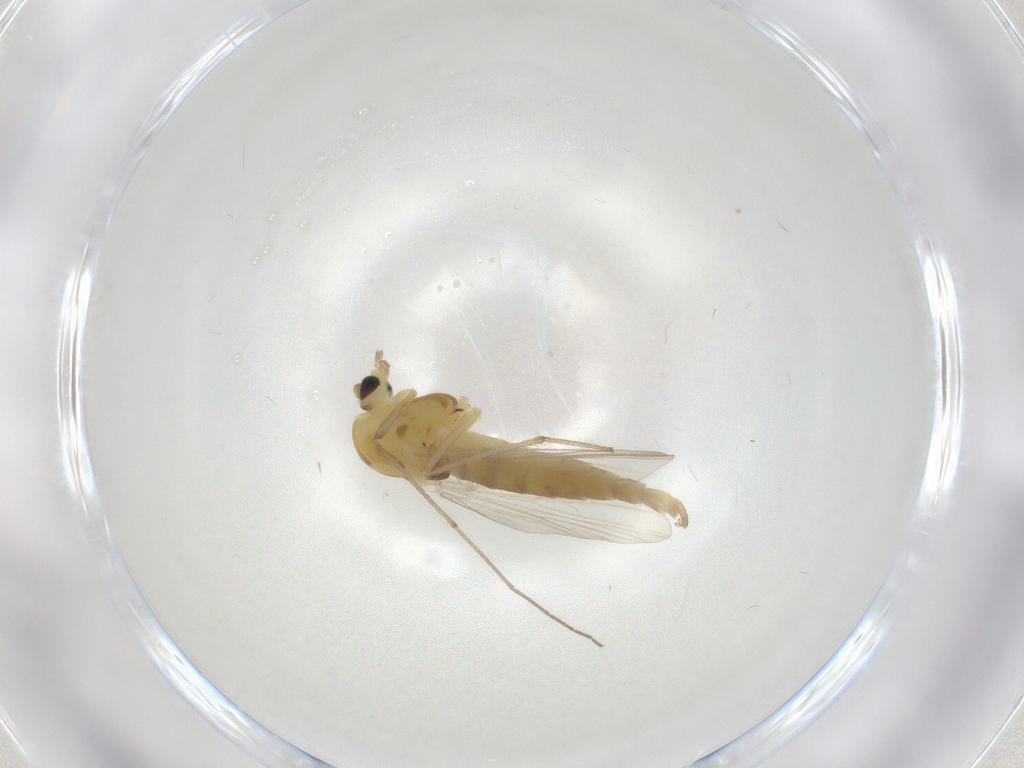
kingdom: Animalia
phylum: Arthropoda
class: Insecta
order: Diptera
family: Chironomidae
